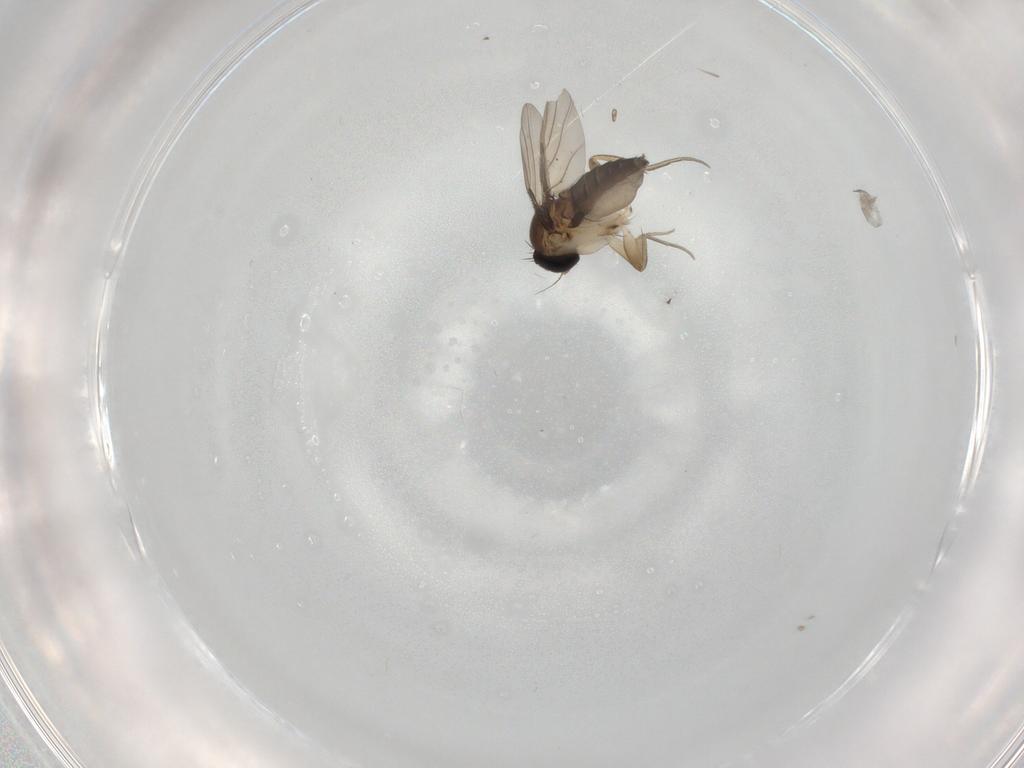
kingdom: Animalia
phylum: Arthropoda
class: Insecta
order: Diptera
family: Phoridae
